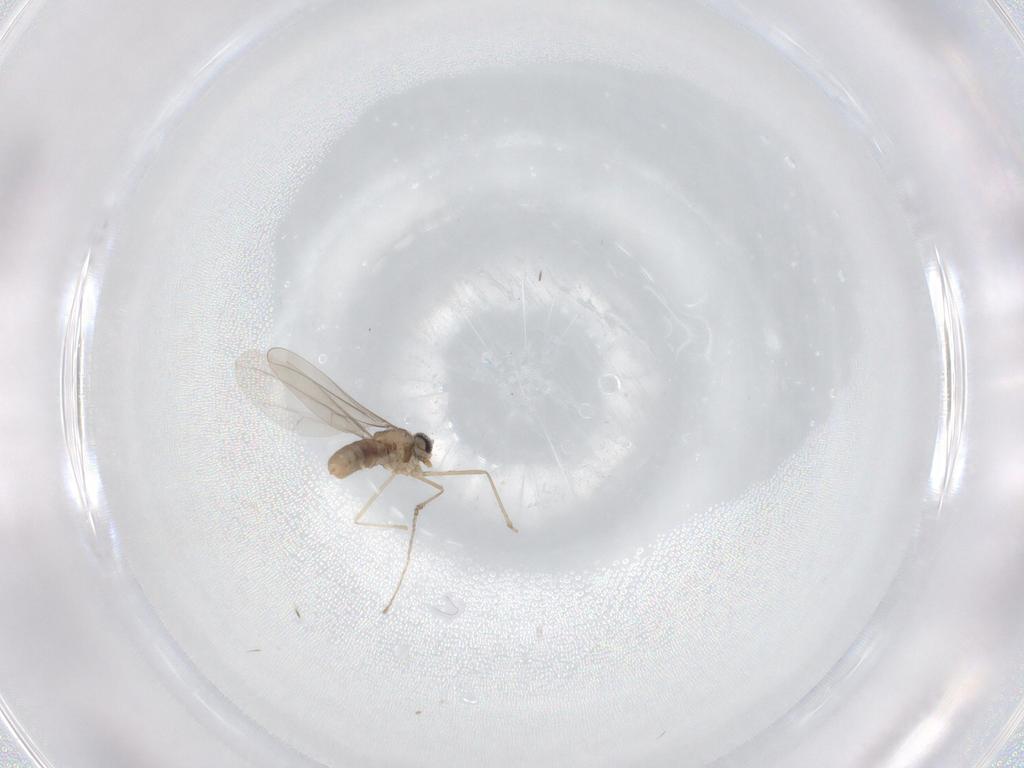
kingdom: Animalia
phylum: Arthropoda
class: Insecta
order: Diptera
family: Cecidomyiidae
